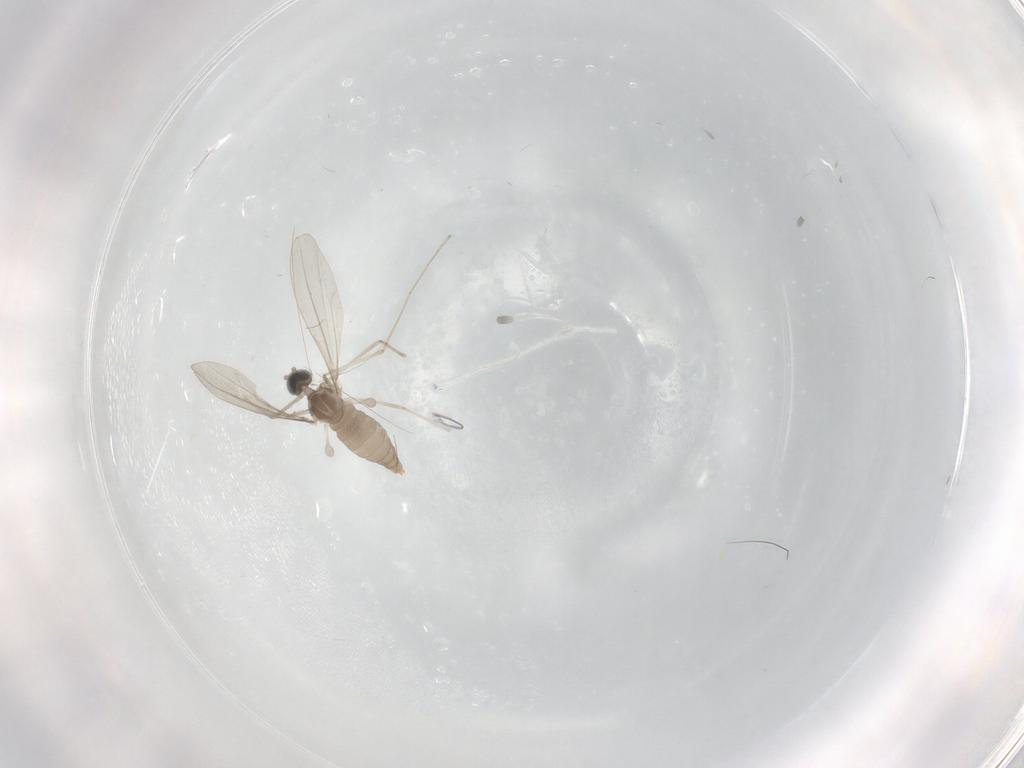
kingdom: Animalia
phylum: Arthropoda
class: Insecta
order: Diptera
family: Cecidomyiidae
